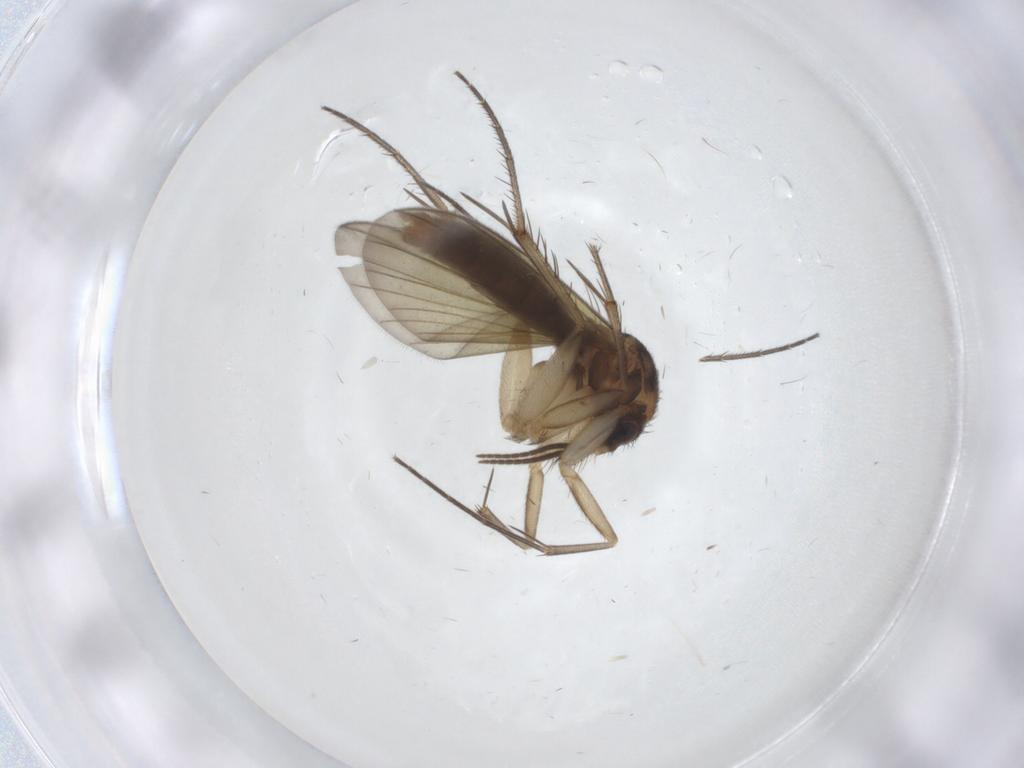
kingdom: Animalia
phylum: Arthropoda
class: Insecta
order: Diptera
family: Mycetophilidae
